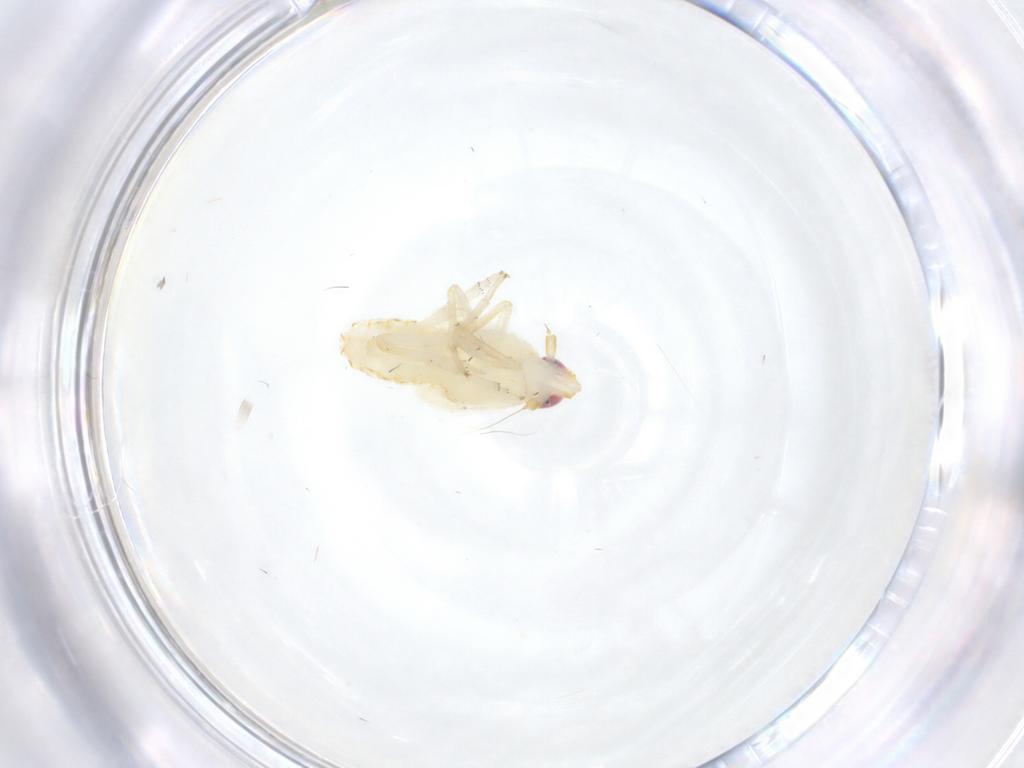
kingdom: Animalia
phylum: Arthropoda
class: Insecta
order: Hemiptera
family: Delphacidae
